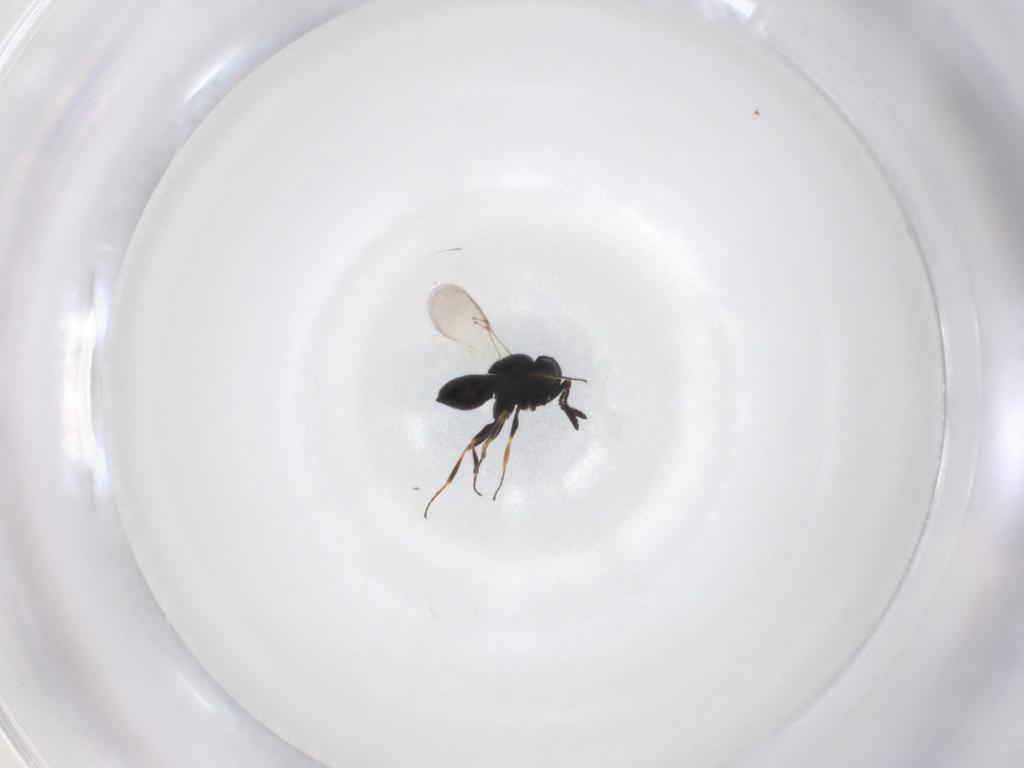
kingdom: Animalia
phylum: Arthropoda
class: Insecta
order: Hymenoptera
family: Scelionidae
